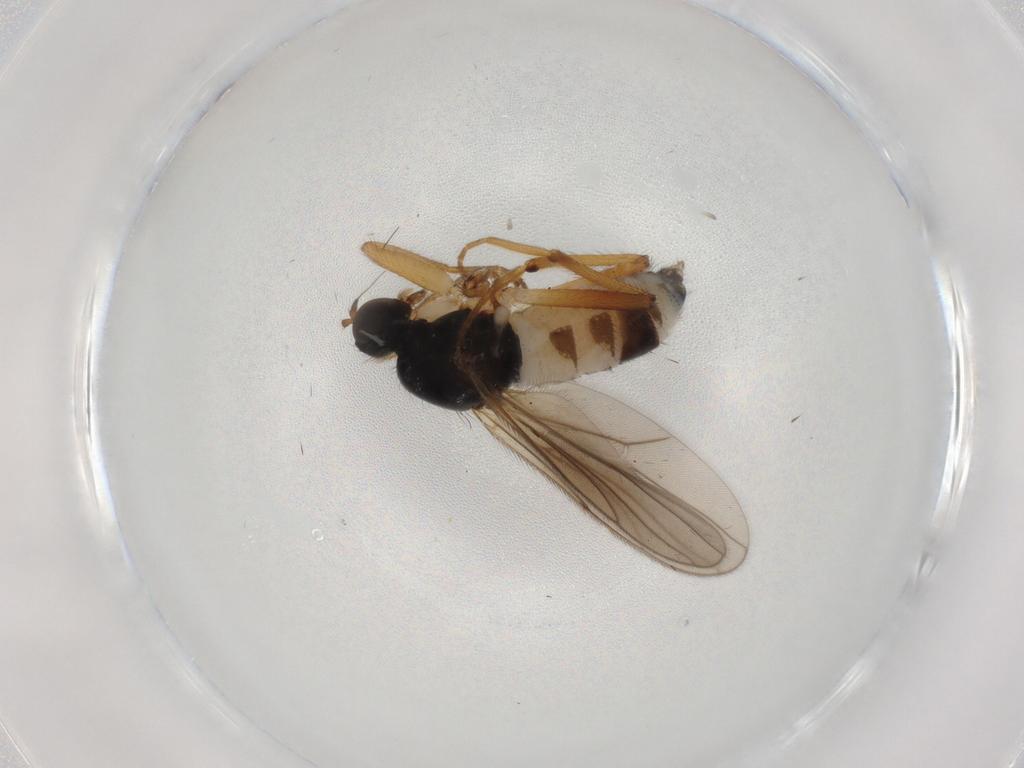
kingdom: Animalia
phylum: Arthropoda
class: Insecta
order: Diptera
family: Hybotidae
